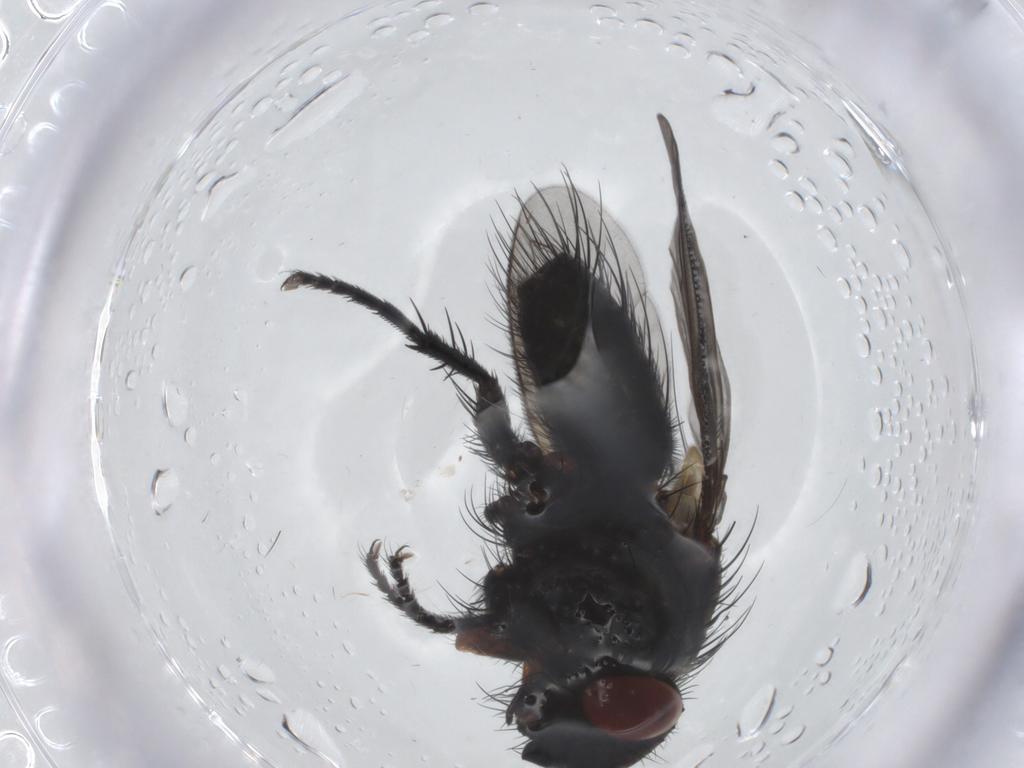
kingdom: Animalia
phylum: Arthropoda
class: Insecta
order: Diptera
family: Tachinidae
